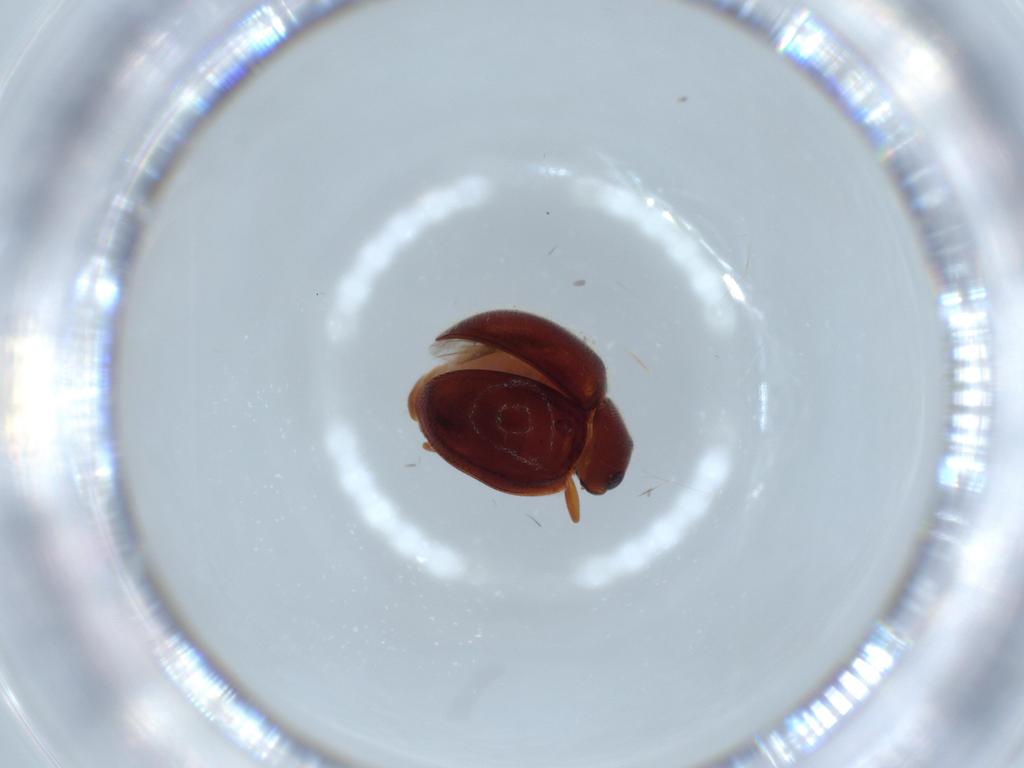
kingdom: Animalia
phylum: Arthropoda
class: Insecta
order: Coleoptera
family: Coccinellidae
